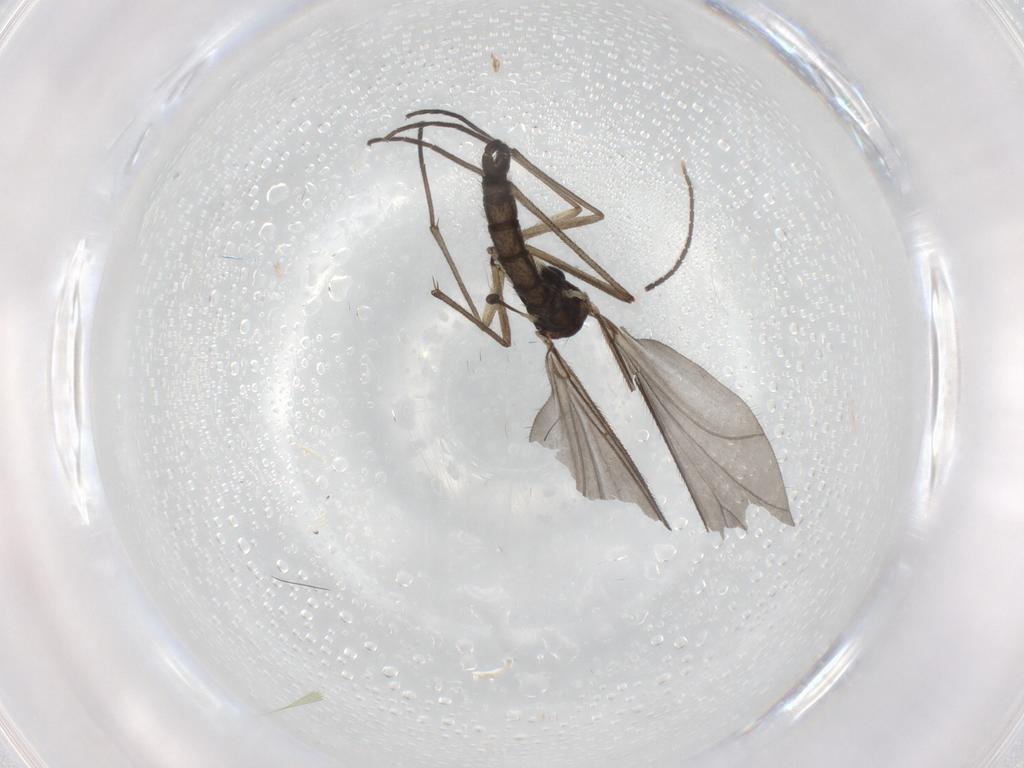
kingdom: Animalia
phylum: Arthropoda
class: Insecta
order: Diptera
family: Sciaridae
